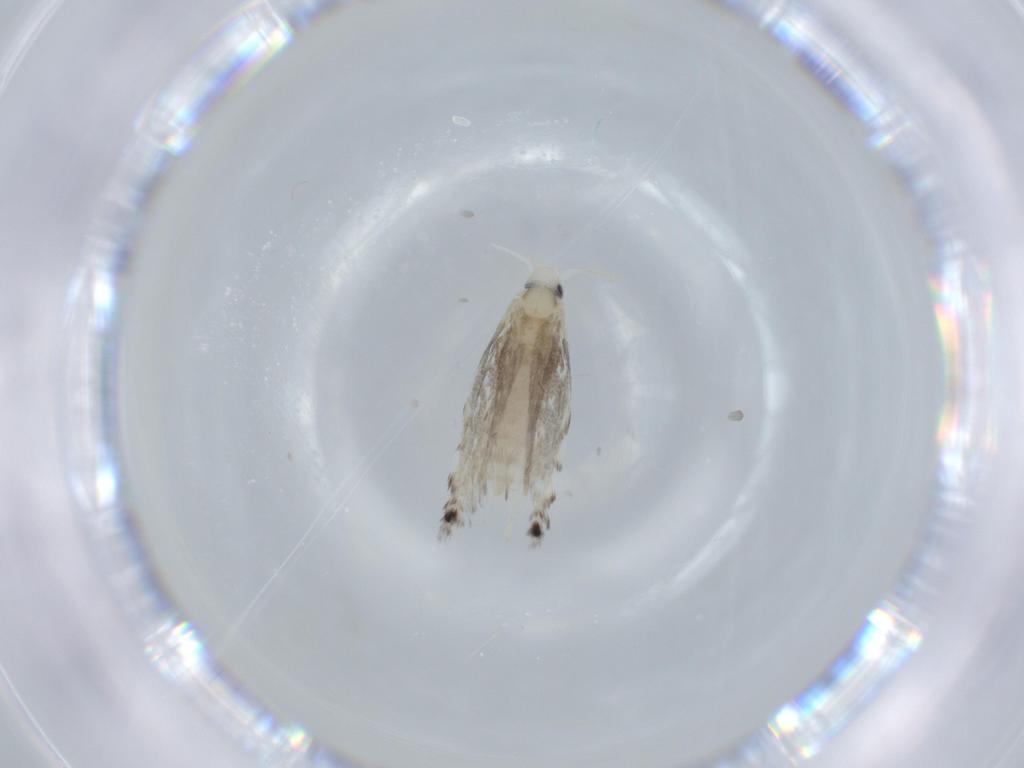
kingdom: Animalia
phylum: Arthropoda
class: Insecta
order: Lepidoptera
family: Gracillariidae
